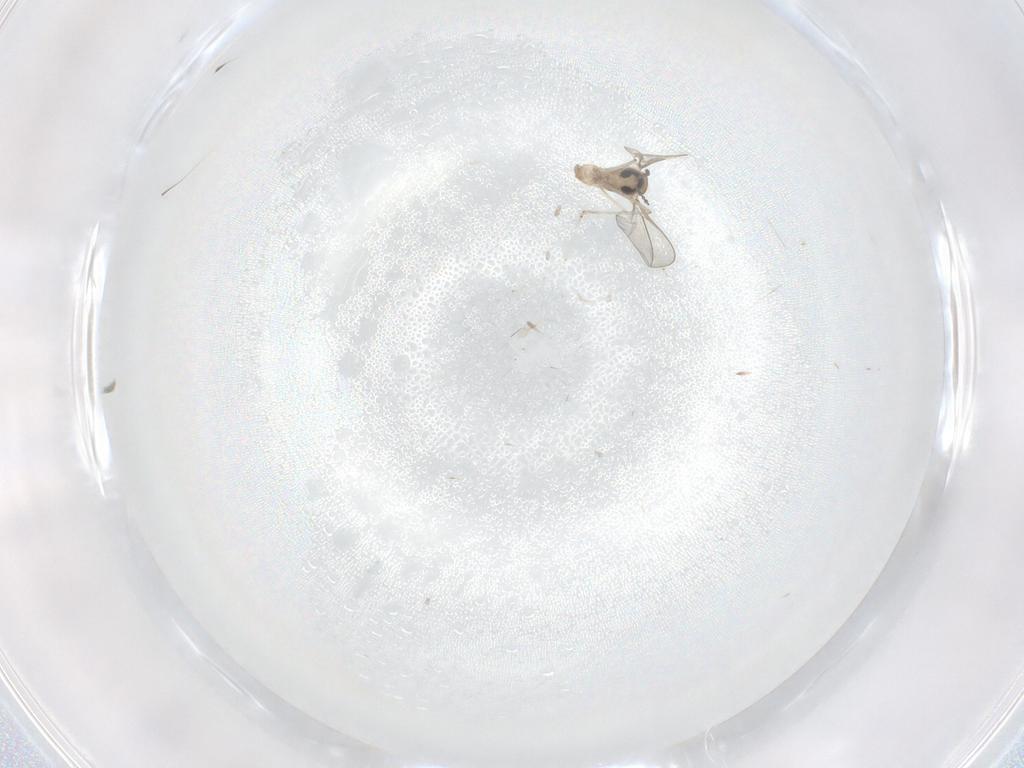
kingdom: Animalia
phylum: Arthropoda
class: Insecta
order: Diptera
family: Cecidomyiidae
